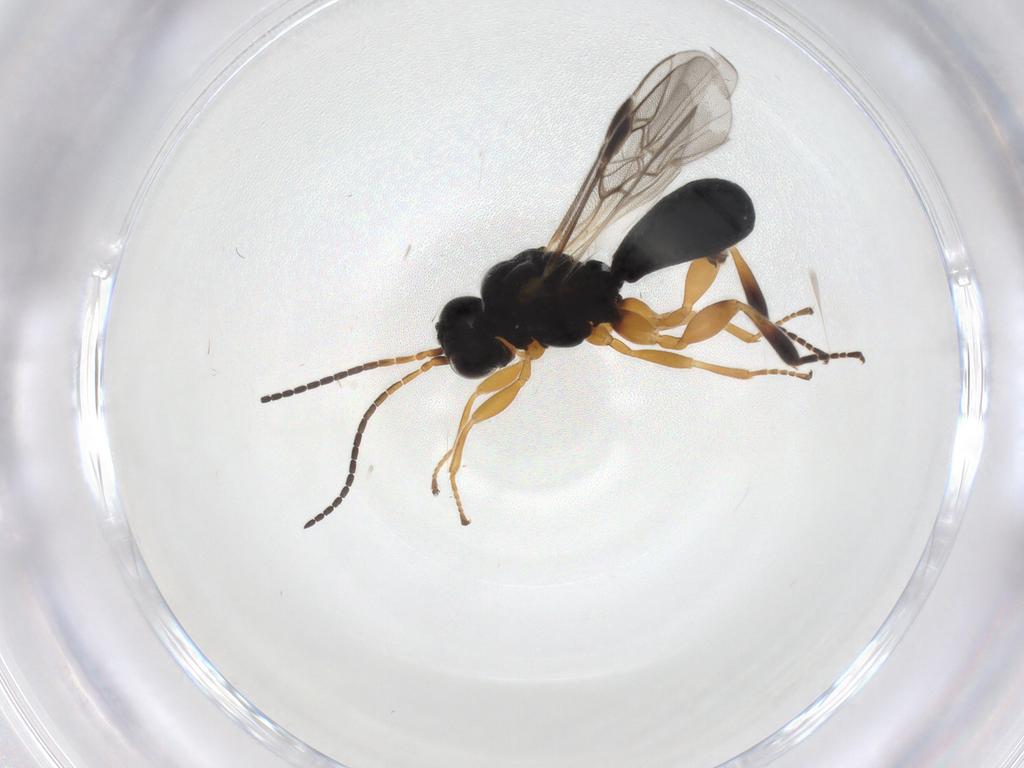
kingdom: Animalia
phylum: Arthropoda
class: Insecta
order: Hymenoptera
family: Braconidae
